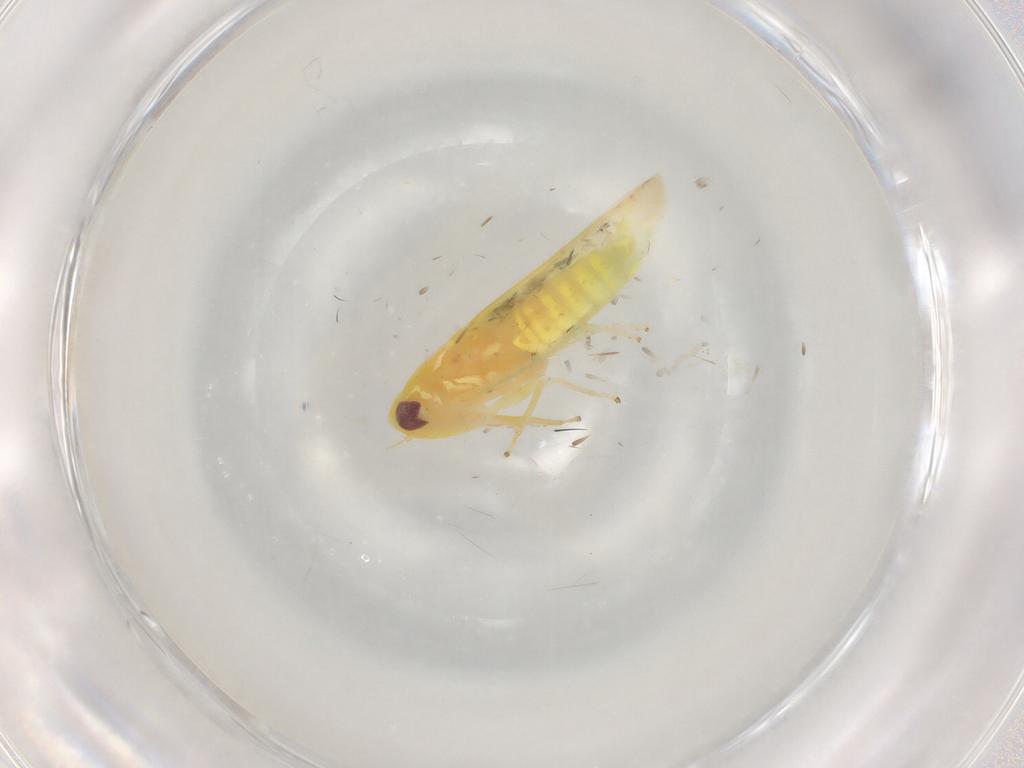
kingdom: Animalia
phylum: Arthropoda
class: Insecta
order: Hemiptera
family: Cicadellidae
